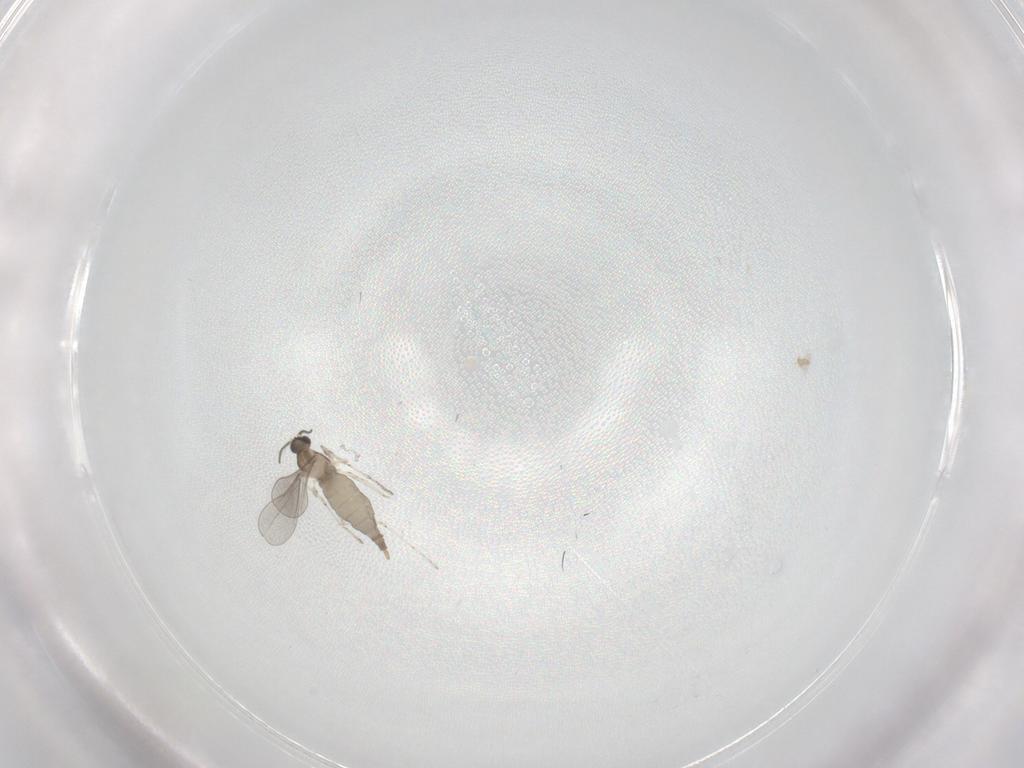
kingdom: Animalia
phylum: Arthropoda
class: Insecta
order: Diptera
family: Cecidomyiidae
